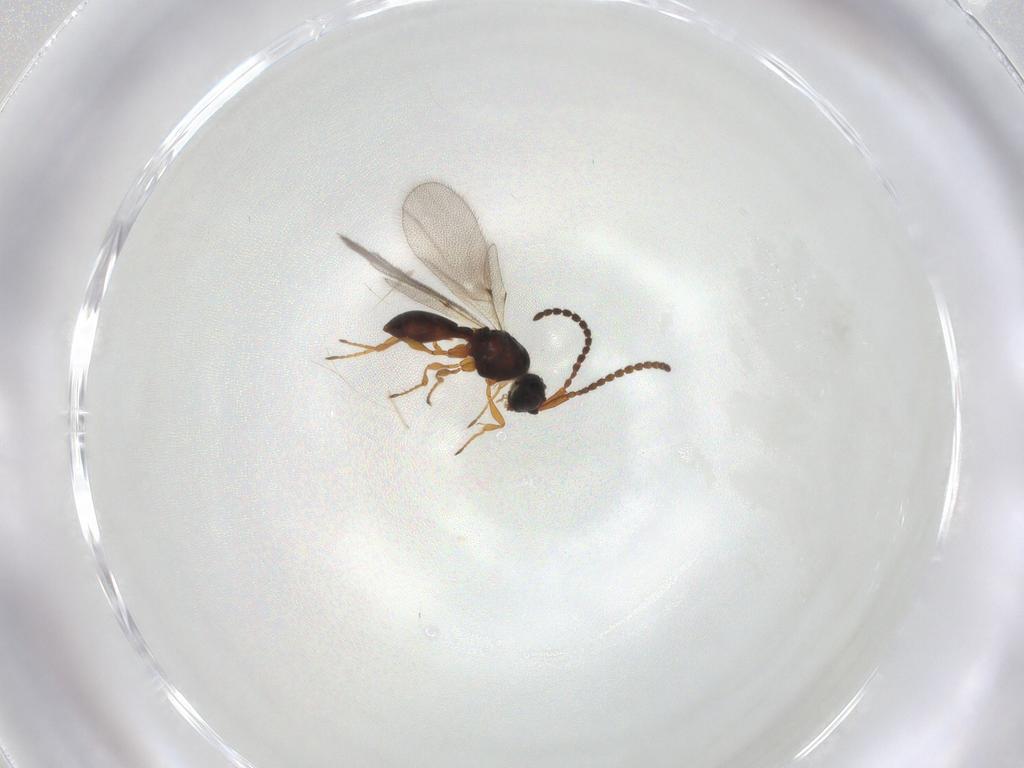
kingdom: Animalia
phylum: Arthropoda
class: Insecta
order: Hymenoptera
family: Diapriidae
